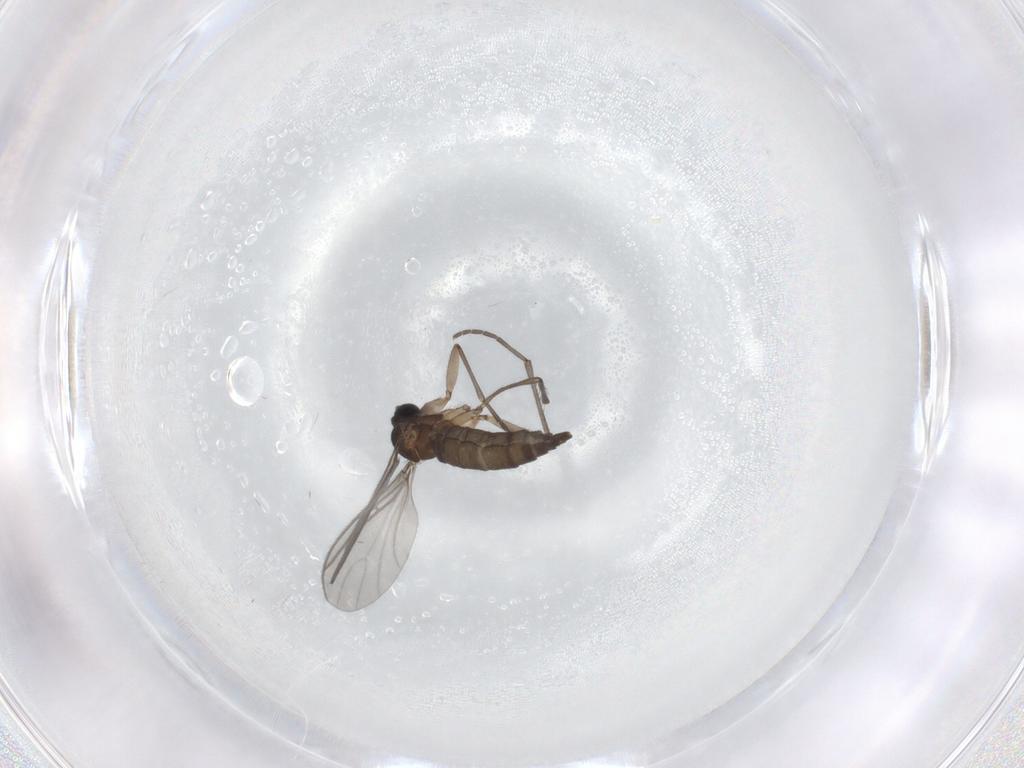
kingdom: Animalia
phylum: Arthropoda
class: Insecta
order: Diptera
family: Sciaridae
